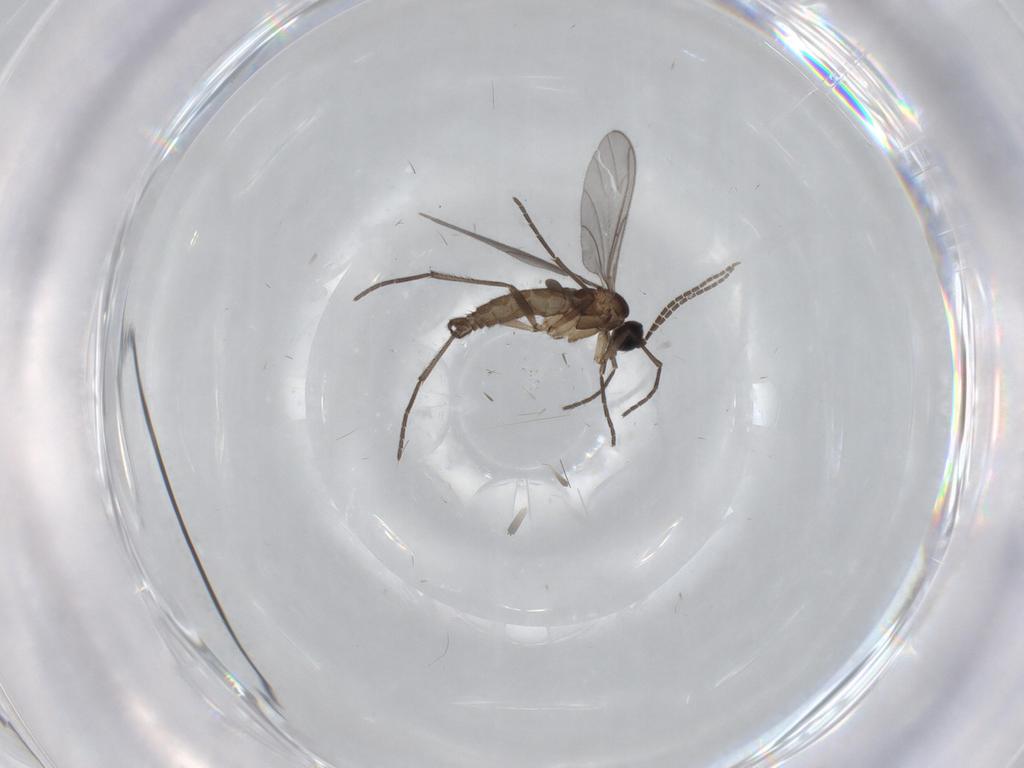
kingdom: Animalia
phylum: Arthropoda
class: Insecta
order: Diptera
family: Sciaridae
